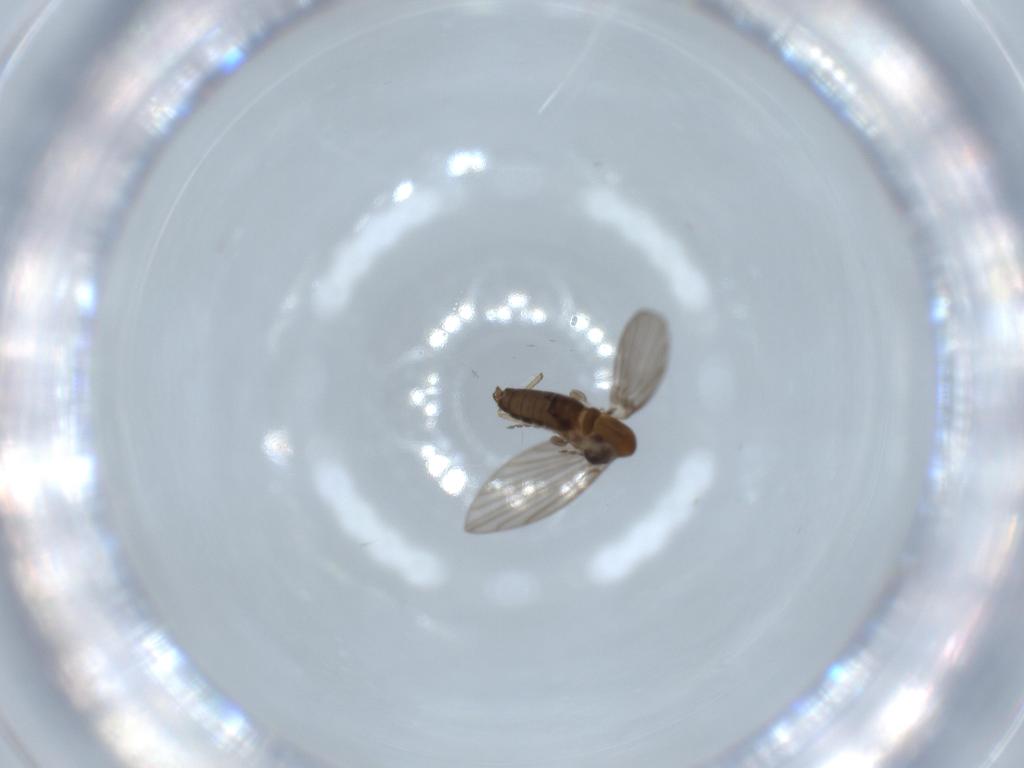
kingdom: Animalia
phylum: Arthropoda
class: Insecta
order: Diptera
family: Psychodidae
